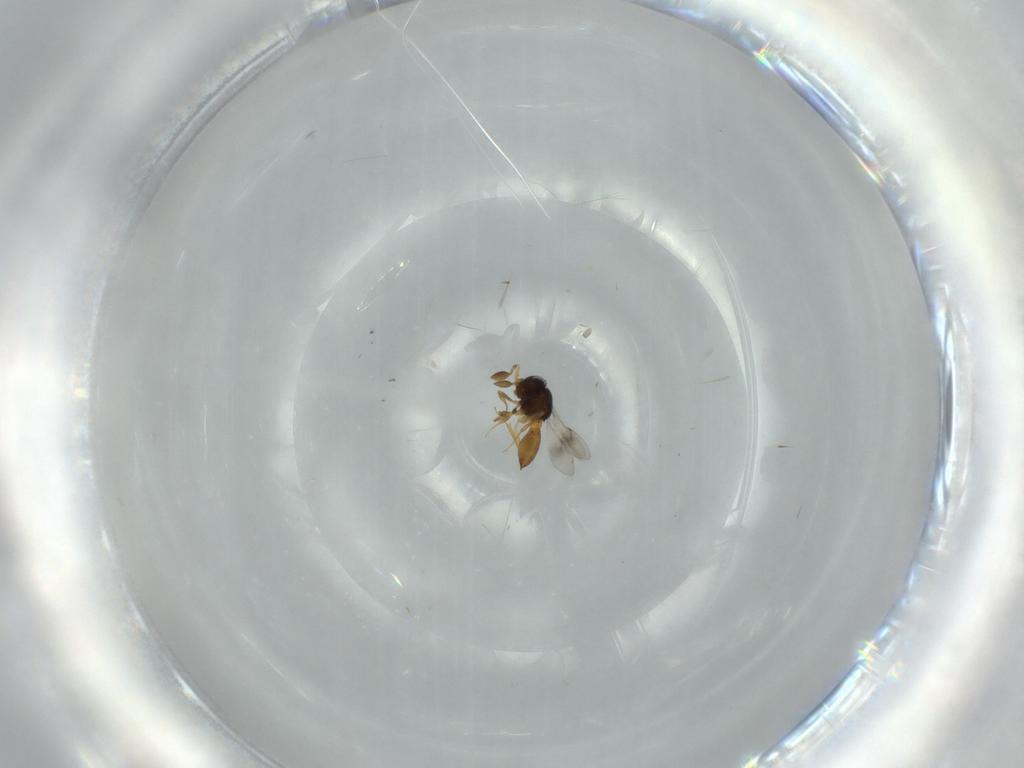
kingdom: Animalia
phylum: Arthropoda
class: Insecta
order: Hymenoptera
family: Scelionidae
